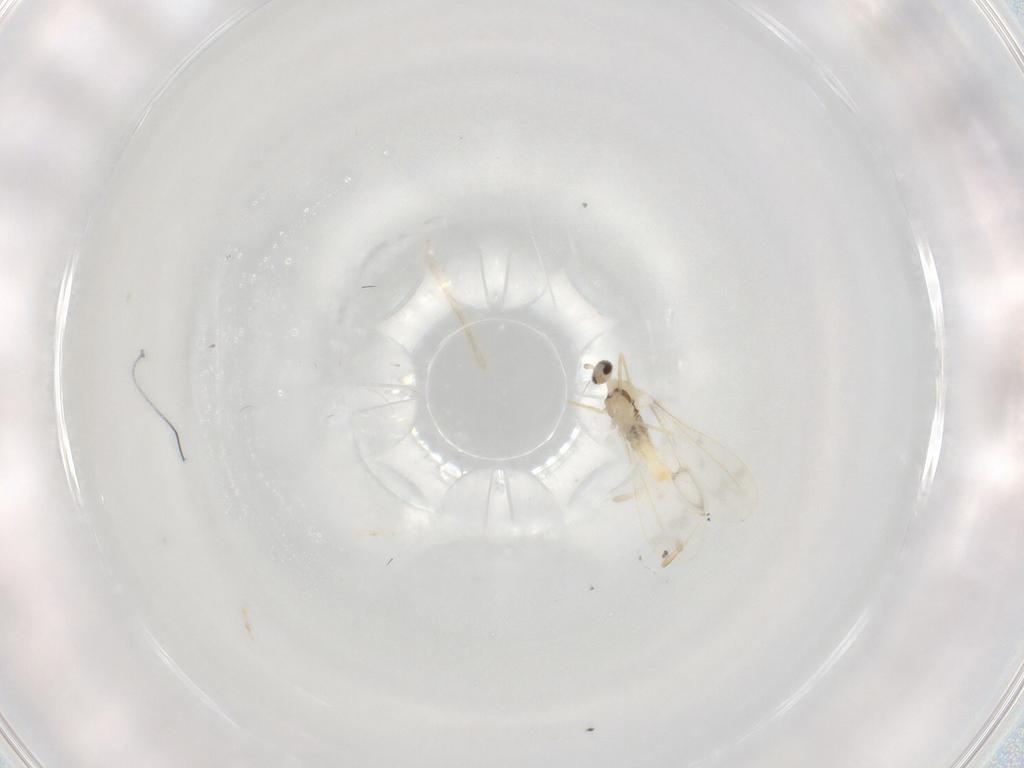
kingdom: Animalia
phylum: Arthropoda
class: Insecta
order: Diptera
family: Cecidomyiidae
